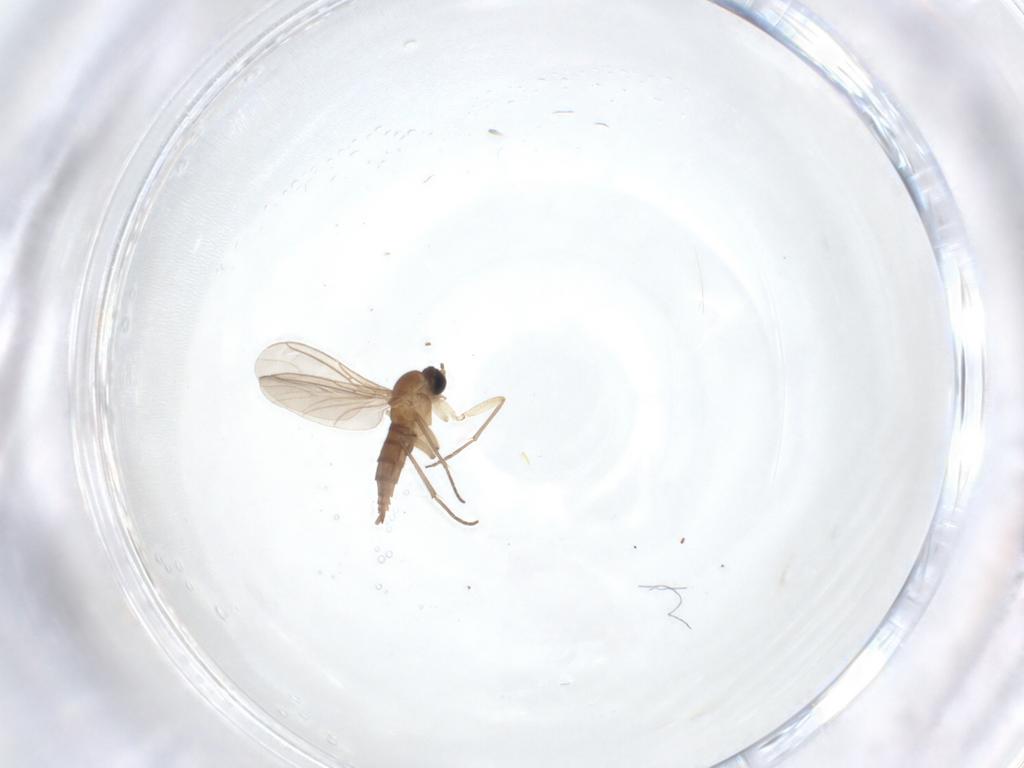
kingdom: Animalia
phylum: Arthropoda
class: Insecta
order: Diptera
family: Sciaridae
